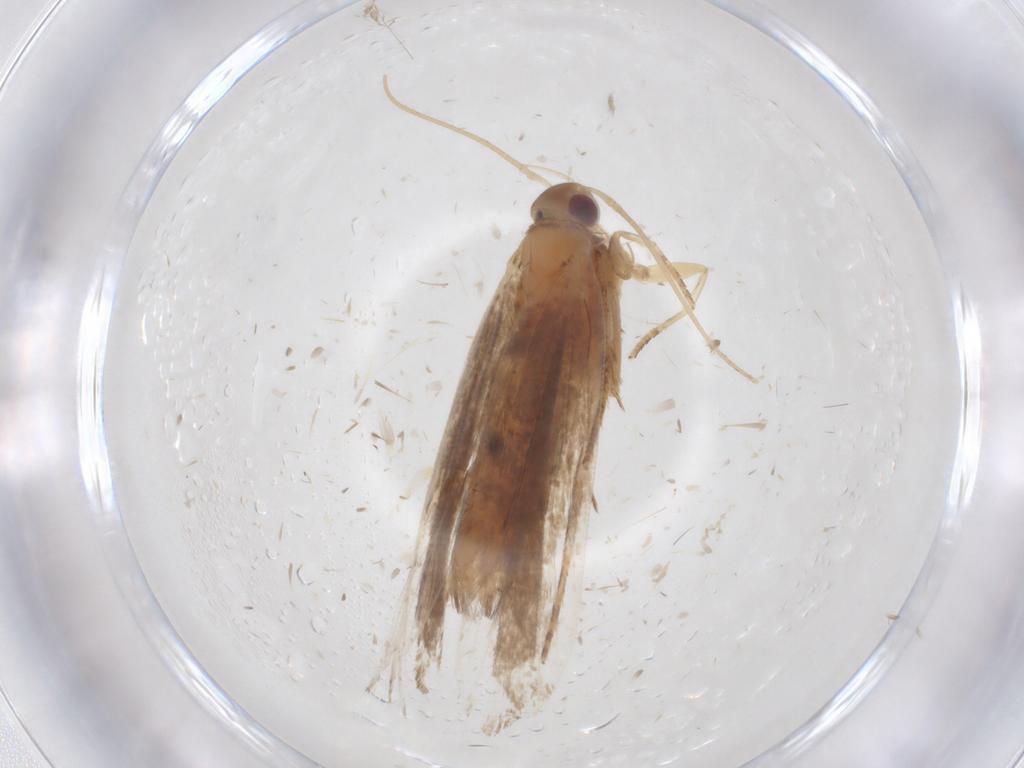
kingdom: Animalia
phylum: Arthropoda
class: Insecta
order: Lepidoptera
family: Gelechiidae
